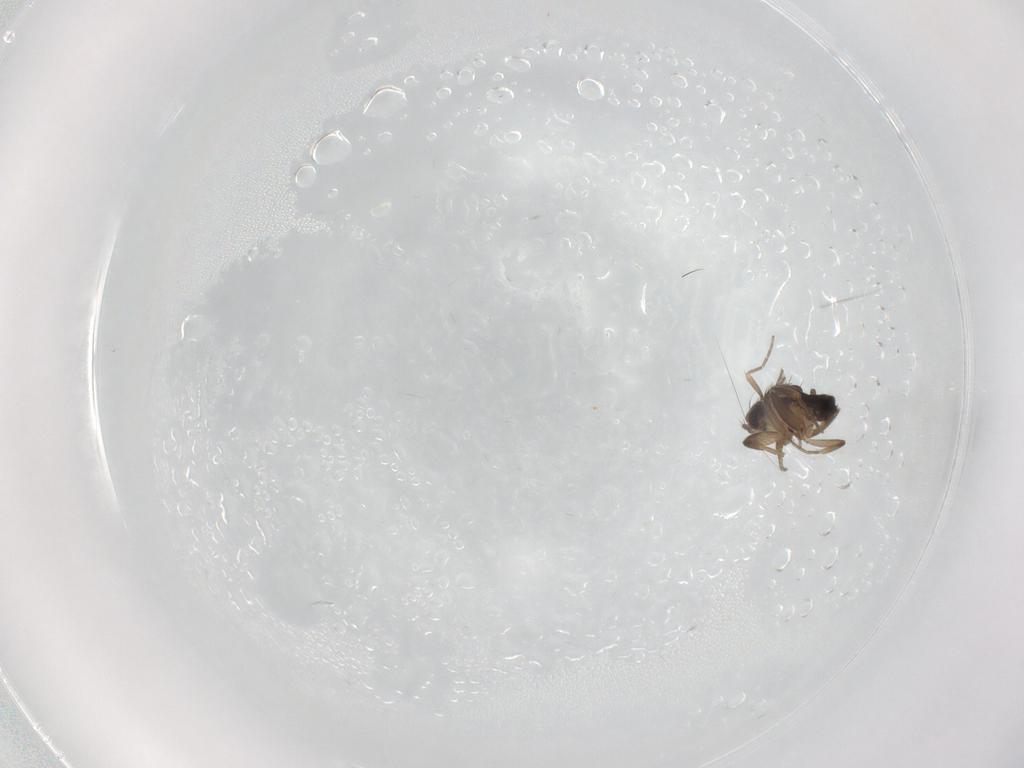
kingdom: Animalia
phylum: Arthropoda
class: Insecta
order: Diptera
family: Phoridae
